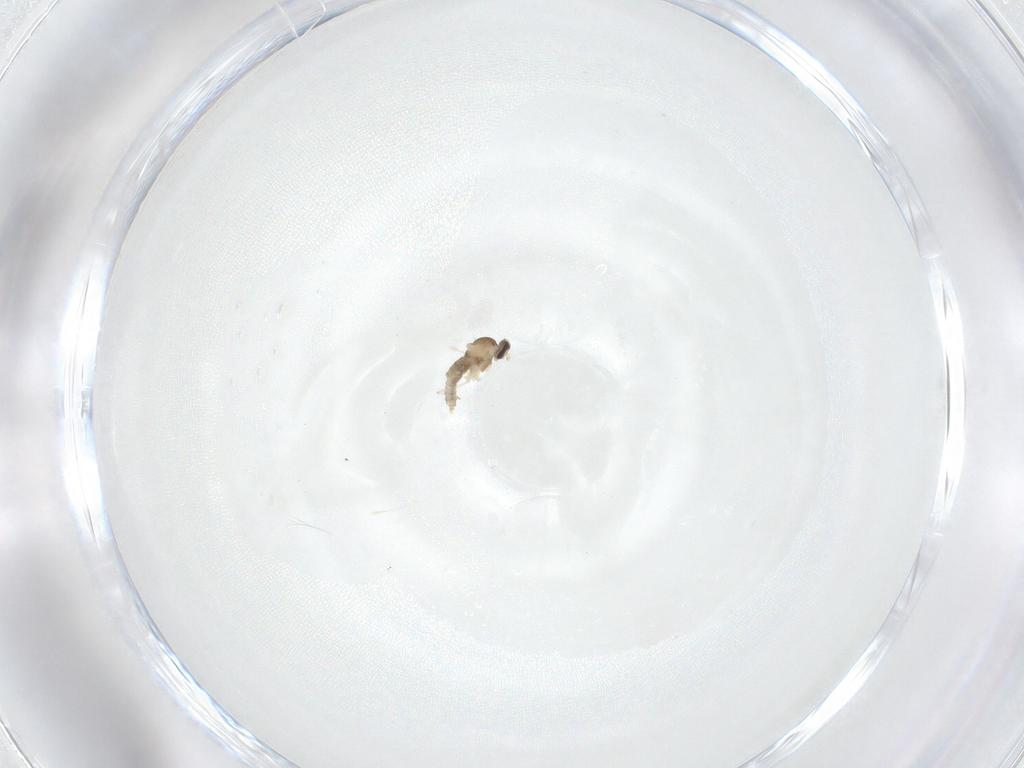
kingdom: Animalia
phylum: Arthropoda
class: Insecta
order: Diptera
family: Cecidomyiidae
